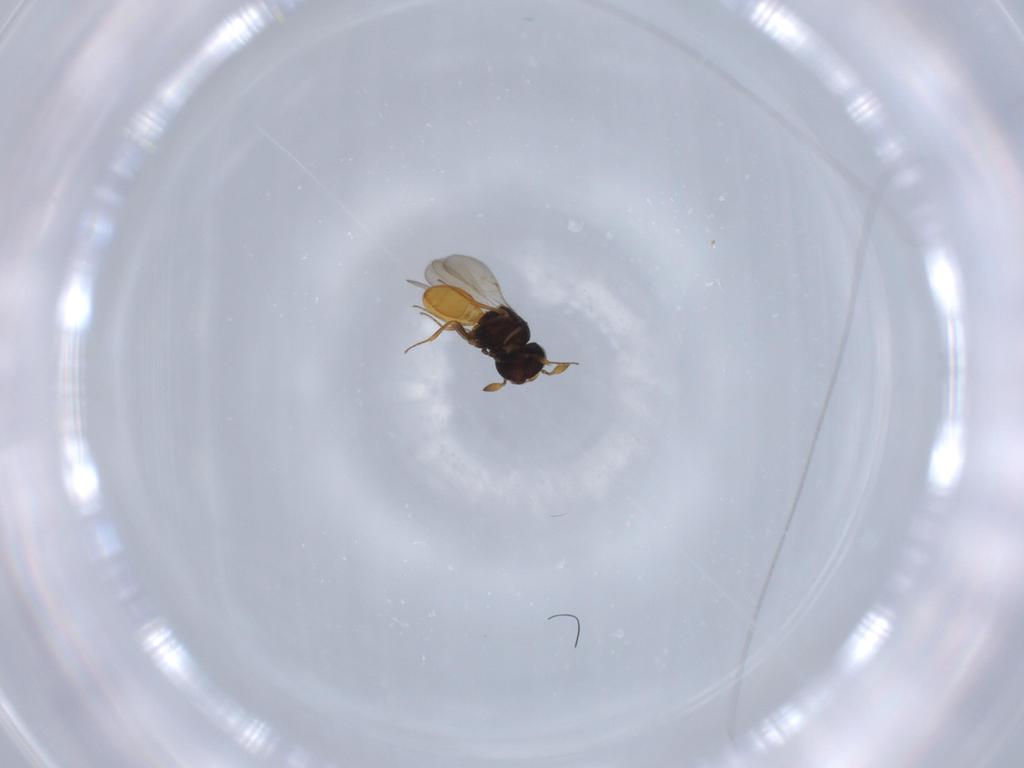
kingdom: Animalia
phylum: Arthropoda
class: Insecta
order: Hymenoptera
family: Scelionidae
